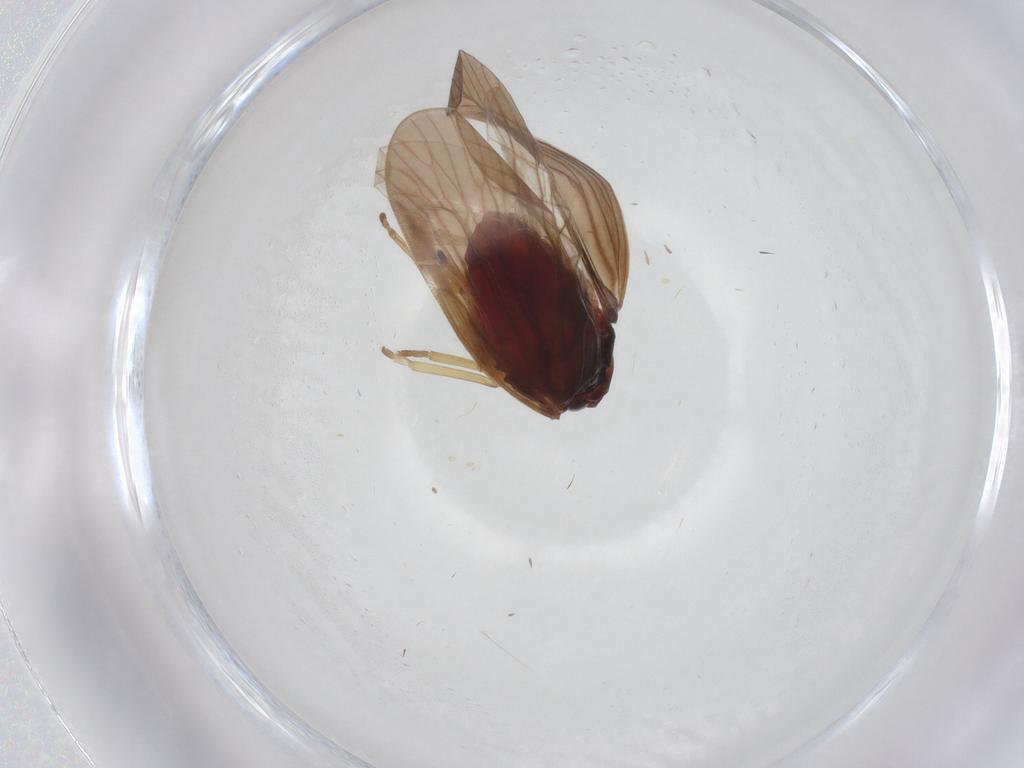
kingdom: Animalia
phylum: Arthropoda
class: Insecta
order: Hemiptera
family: Derbidae
